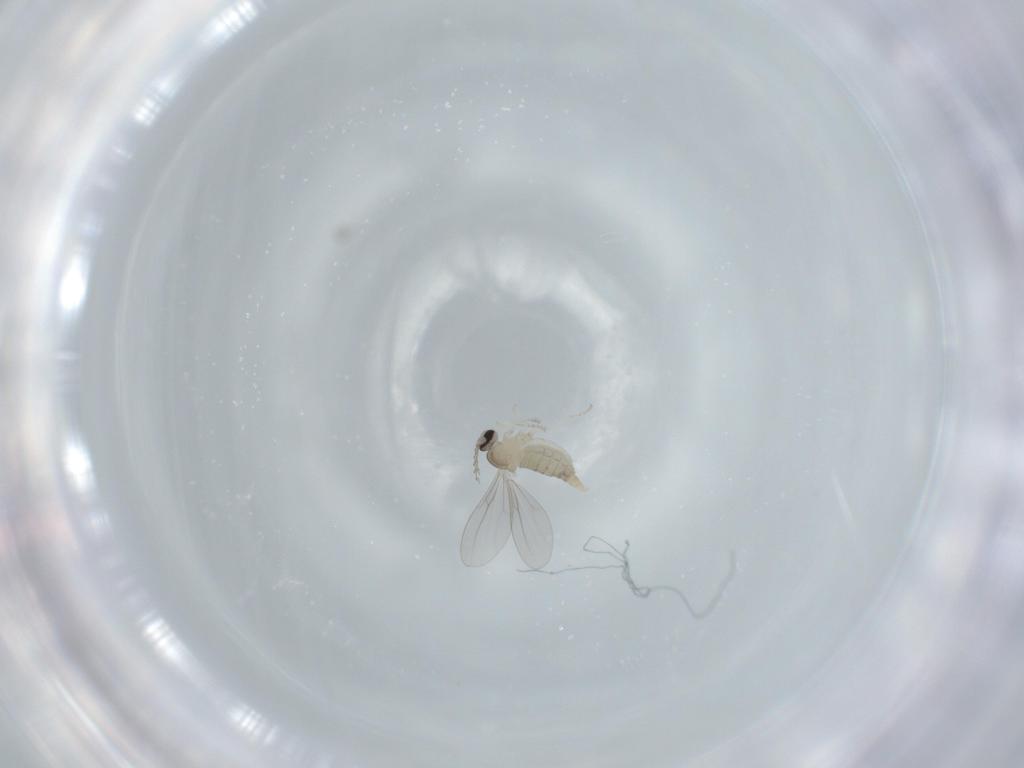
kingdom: Animalia
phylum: Arthropoda
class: Insecta
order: Diptera
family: Cecidomyiidae
